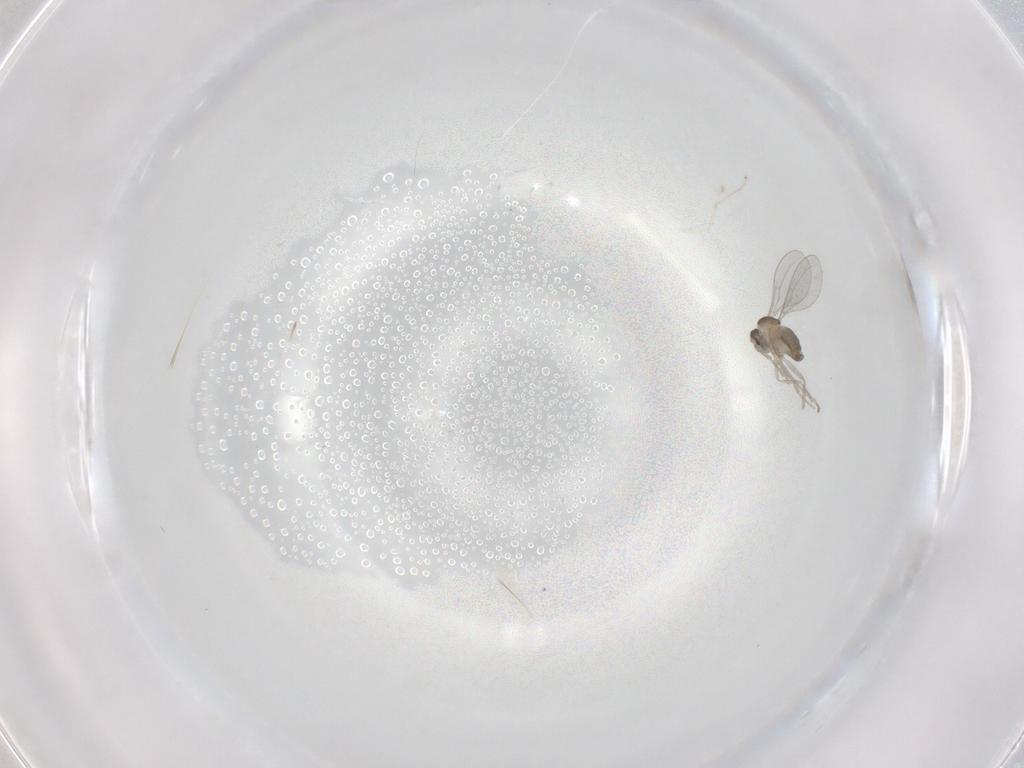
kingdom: Animalia
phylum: Arthropoda
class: Insecta
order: Diptera
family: Cecidomyiidae
